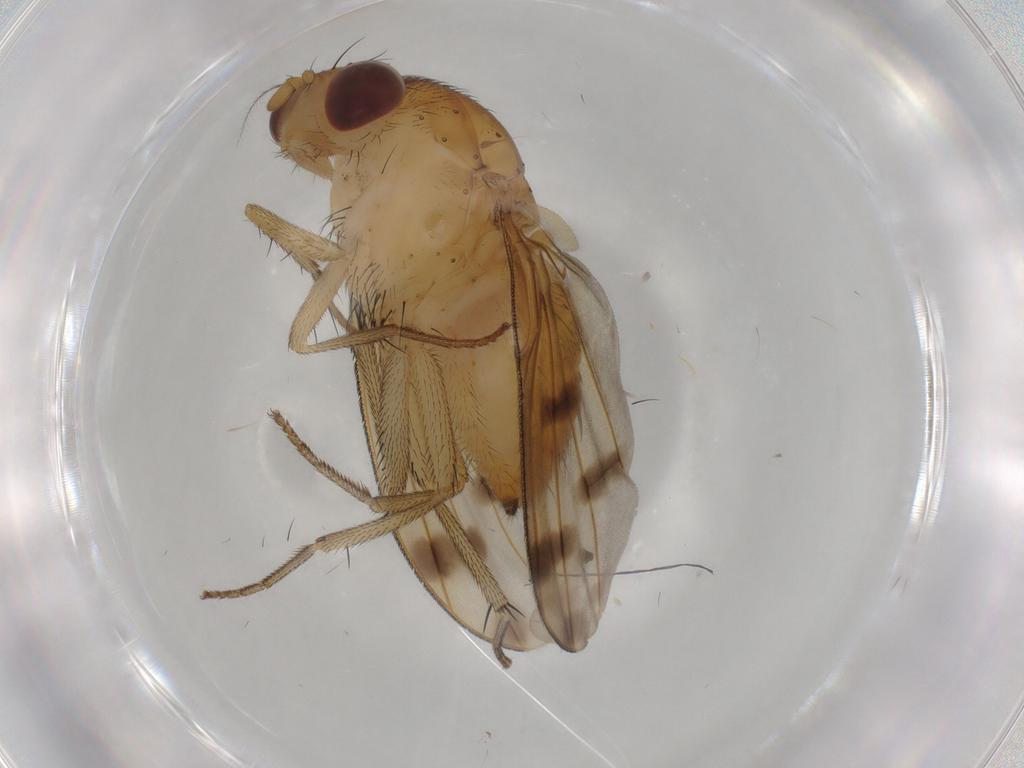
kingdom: Animalia
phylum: Arthropoda
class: Insecta
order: Diptera
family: Lauxaniidae
